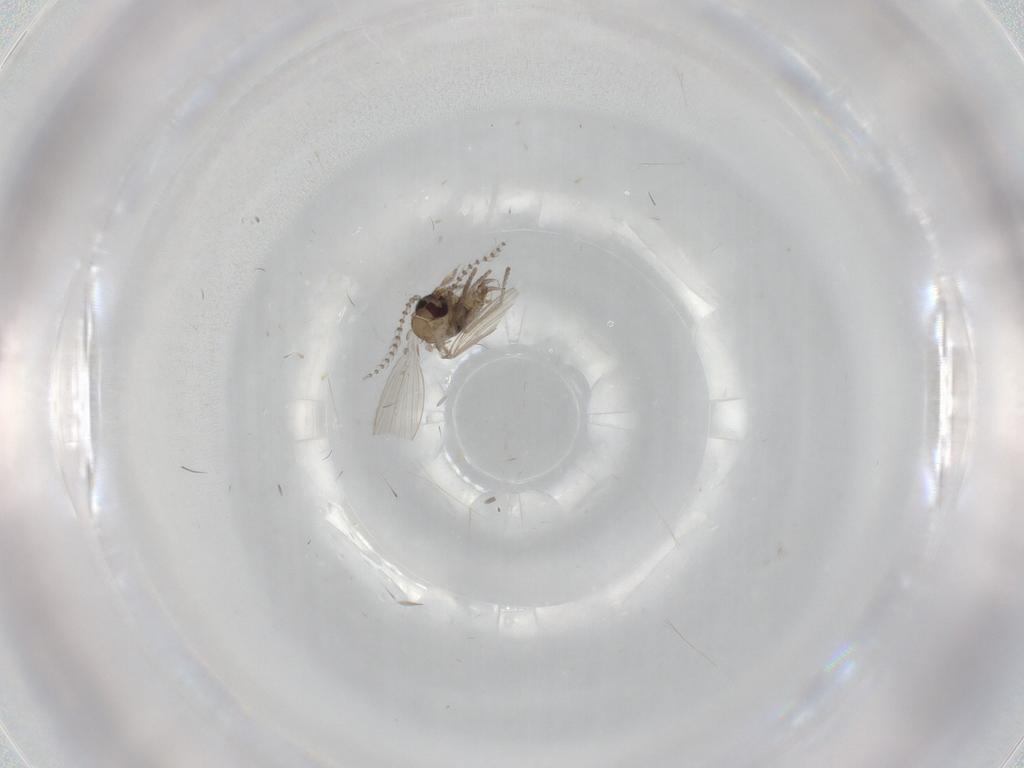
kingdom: Animalia
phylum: Arthropoda
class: Insecta
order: Diptera
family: Psychodidae
